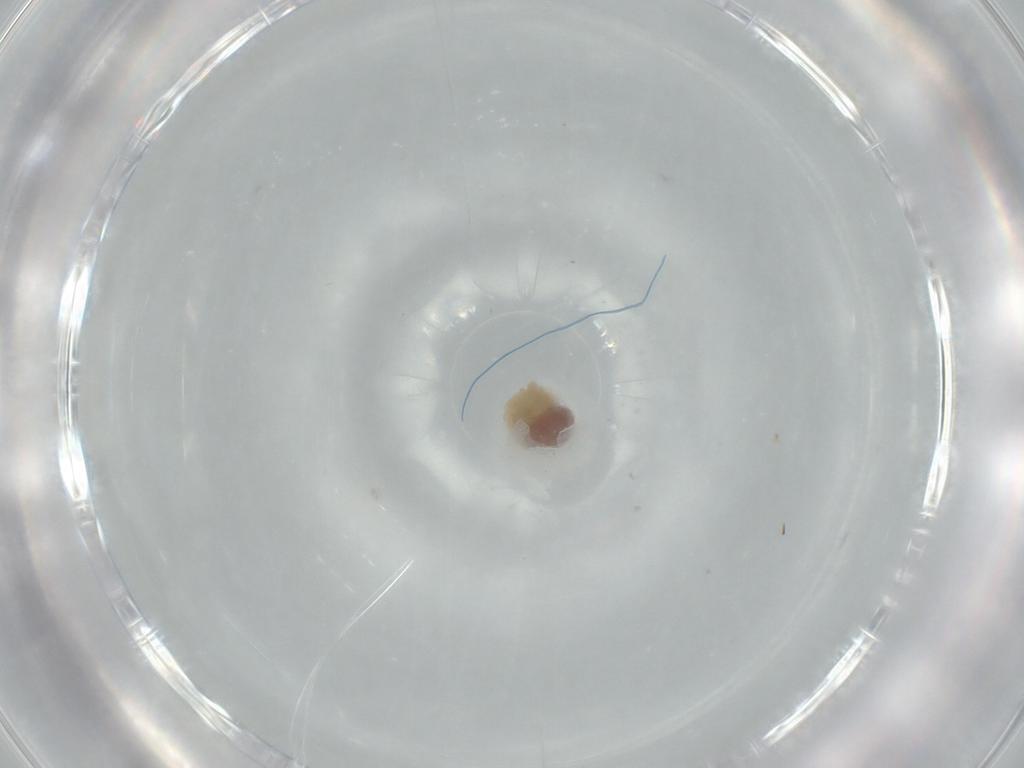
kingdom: Animalia
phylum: Arthropoda
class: Arachnida
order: Araneae
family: Pholcidae
